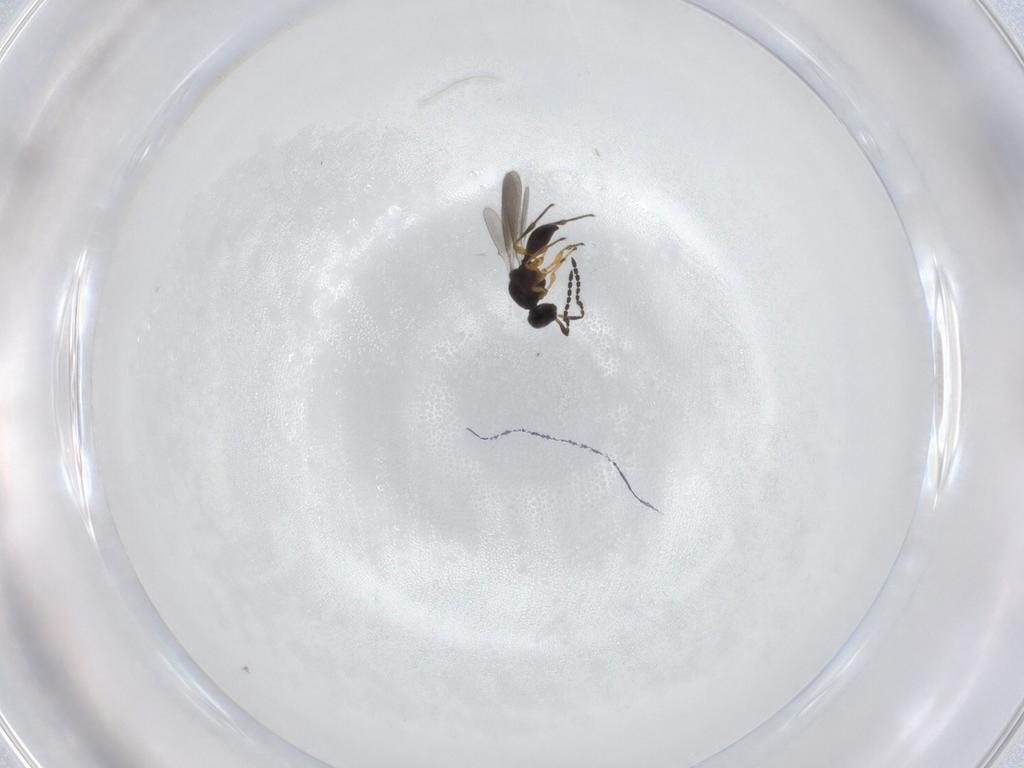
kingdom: Animalia
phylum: Arthropoda
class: Insecta
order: Hymenoptera
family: Platygastridae
